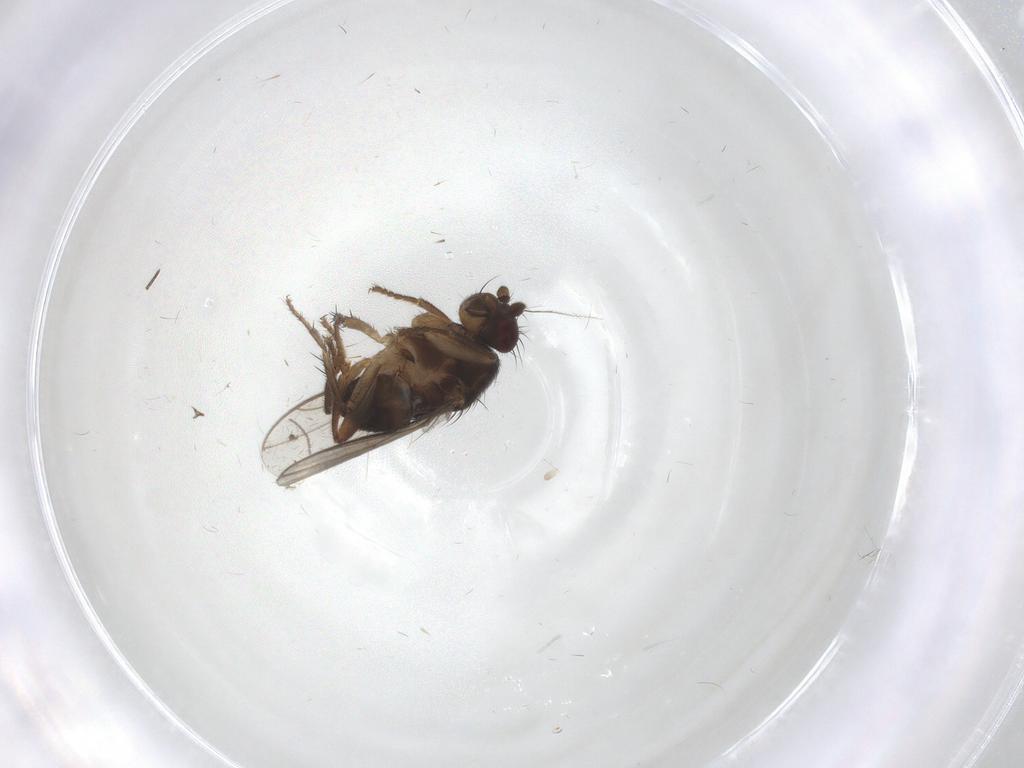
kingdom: Animalia
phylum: Arthropoda
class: Insecta
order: Diptera
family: Sphaeroceridae
